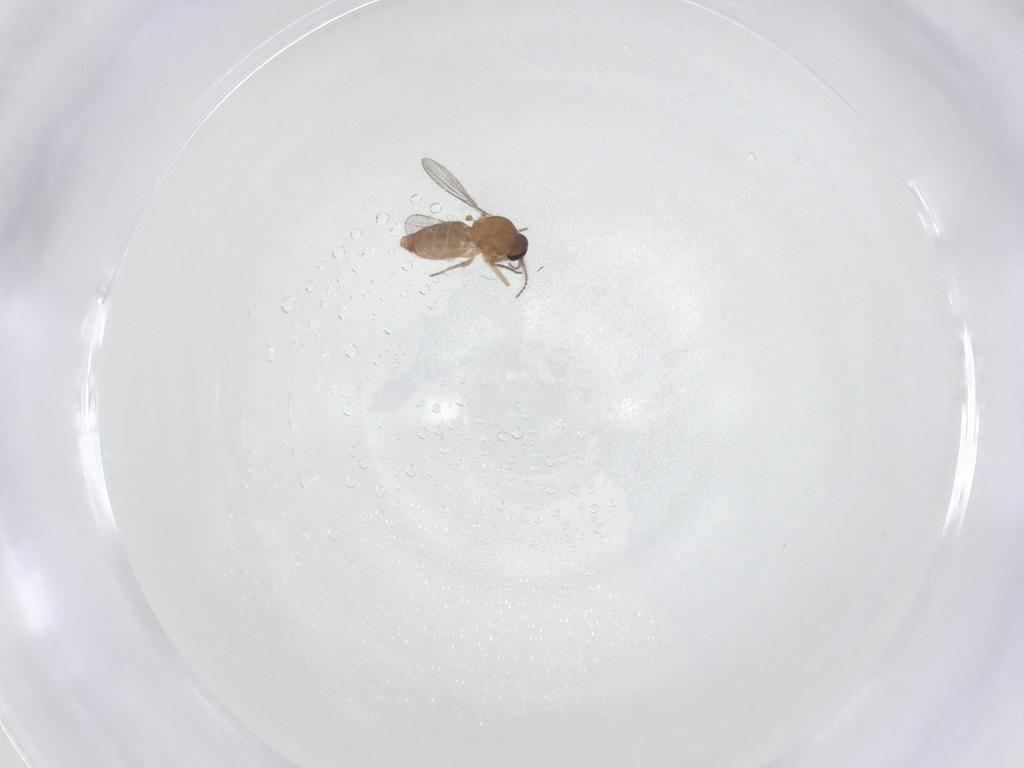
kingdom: Animalia
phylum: Arthropoda
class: Insecta
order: Diptera
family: Ceratopogonidae
